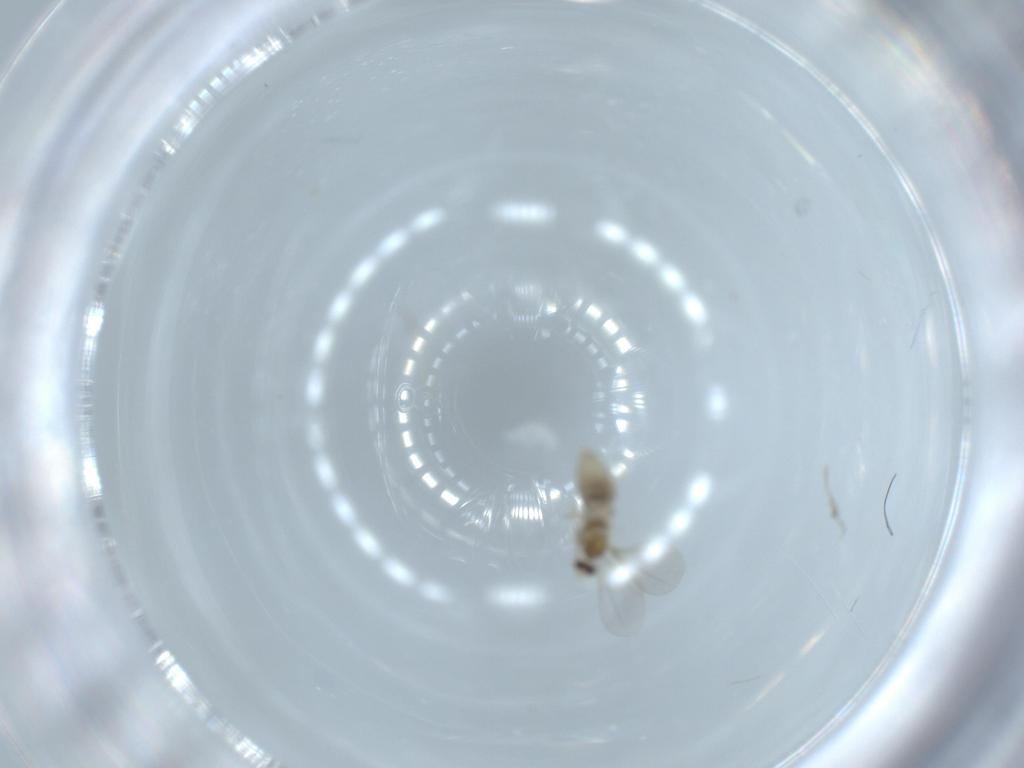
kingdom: Animalia
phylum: Arthropoda
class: Insecta
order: Diptera
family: Cecidomyiidae
